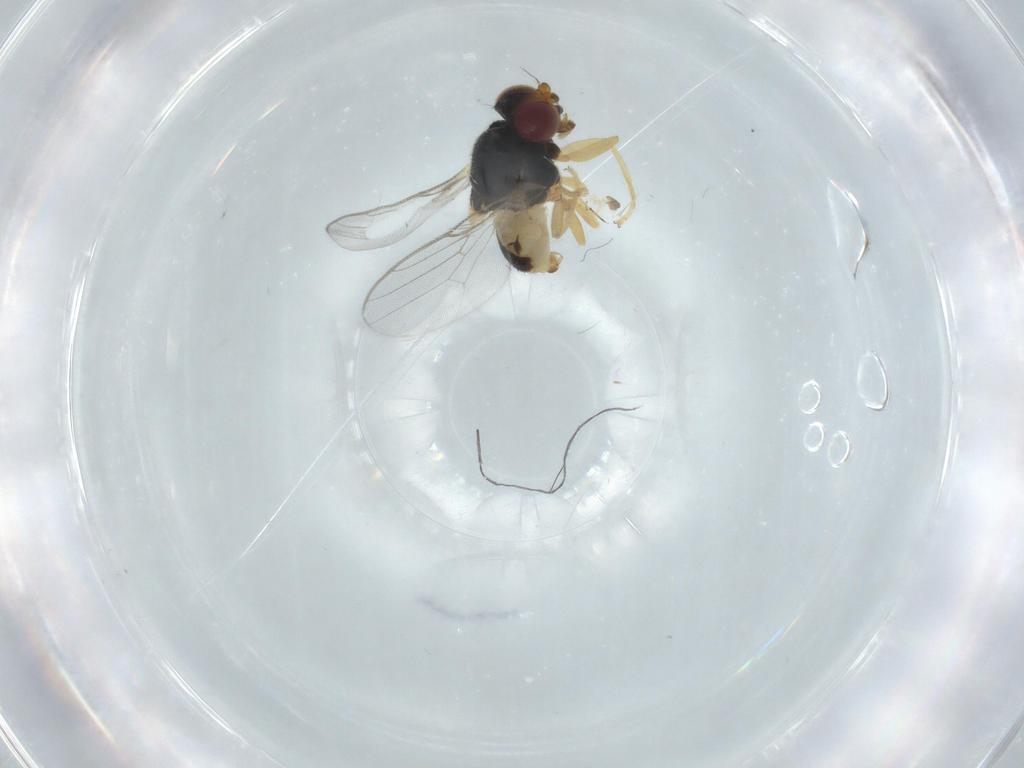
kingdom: Animalia
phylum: Arthropoda
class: Insecta
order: Diptera
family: Chloropidae
